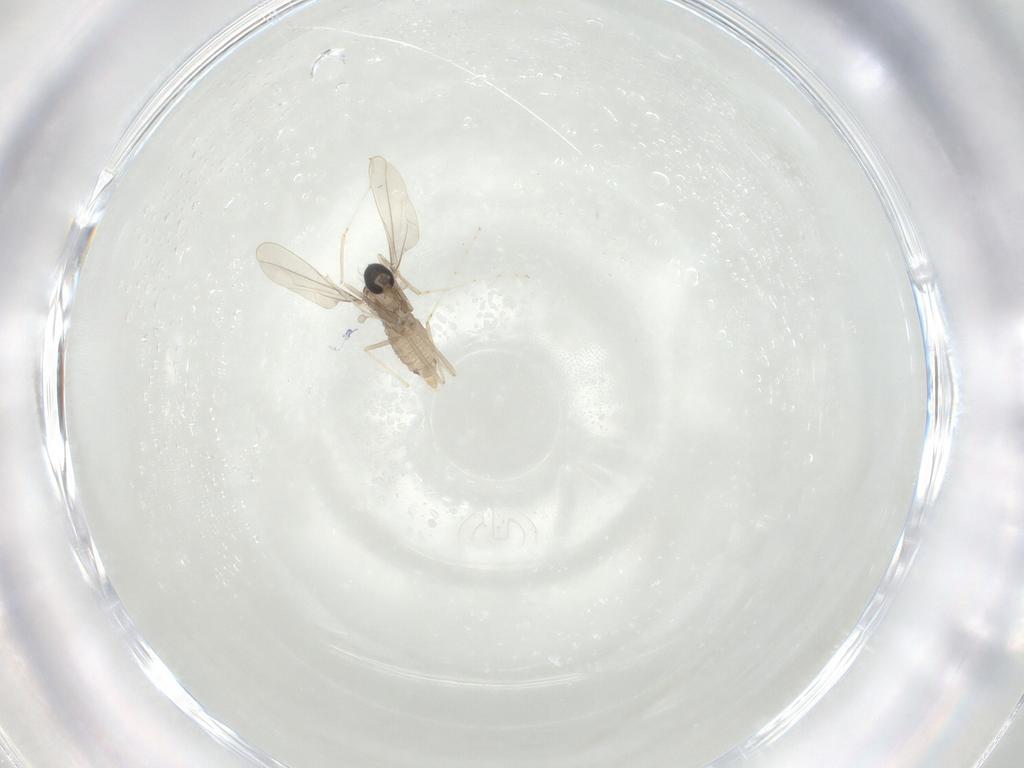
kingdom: Animalia
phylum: Arthropoda
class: Insecta
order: Diptera
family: Cecidomyiidae
